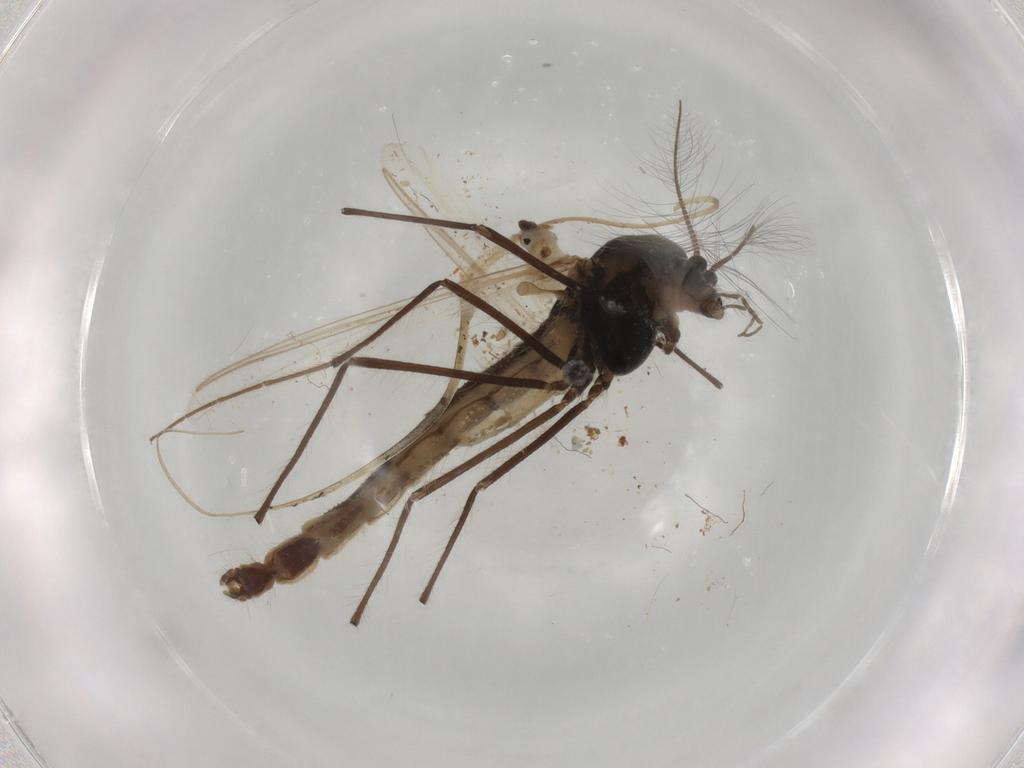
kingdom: Animalia
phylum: Arthropoda
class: Insecta
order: Diptera
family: Chironomidae
